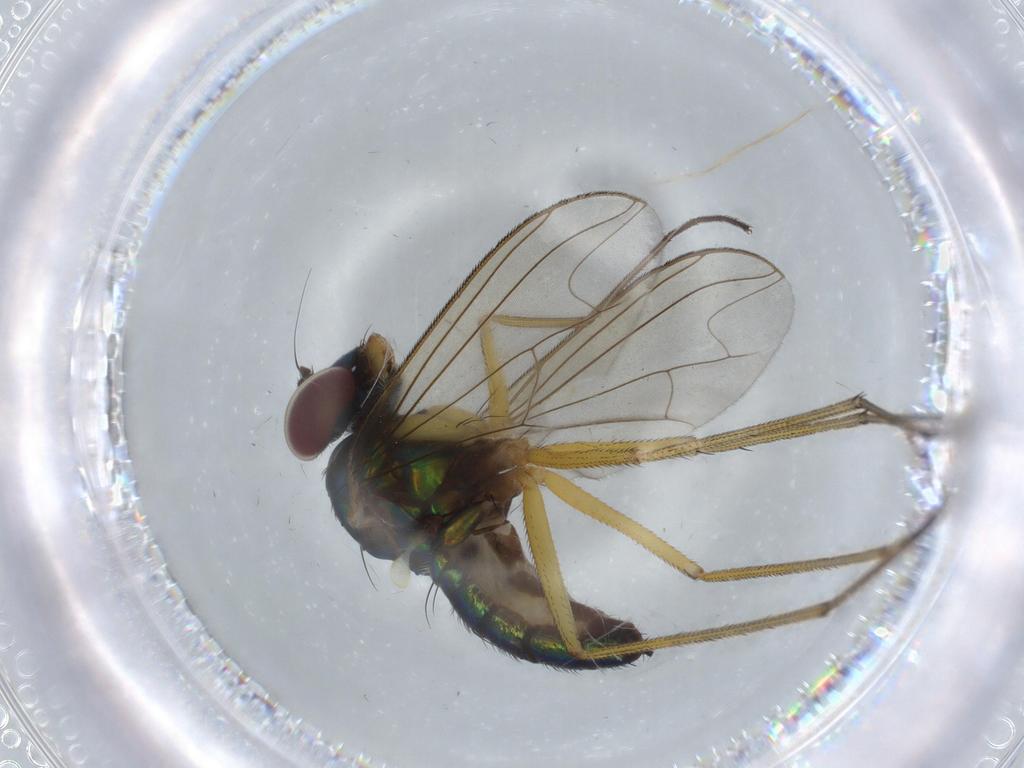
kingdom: Animalia
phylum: Arthropoda
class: Insecta
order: Diptera
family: Dolichopodidae
